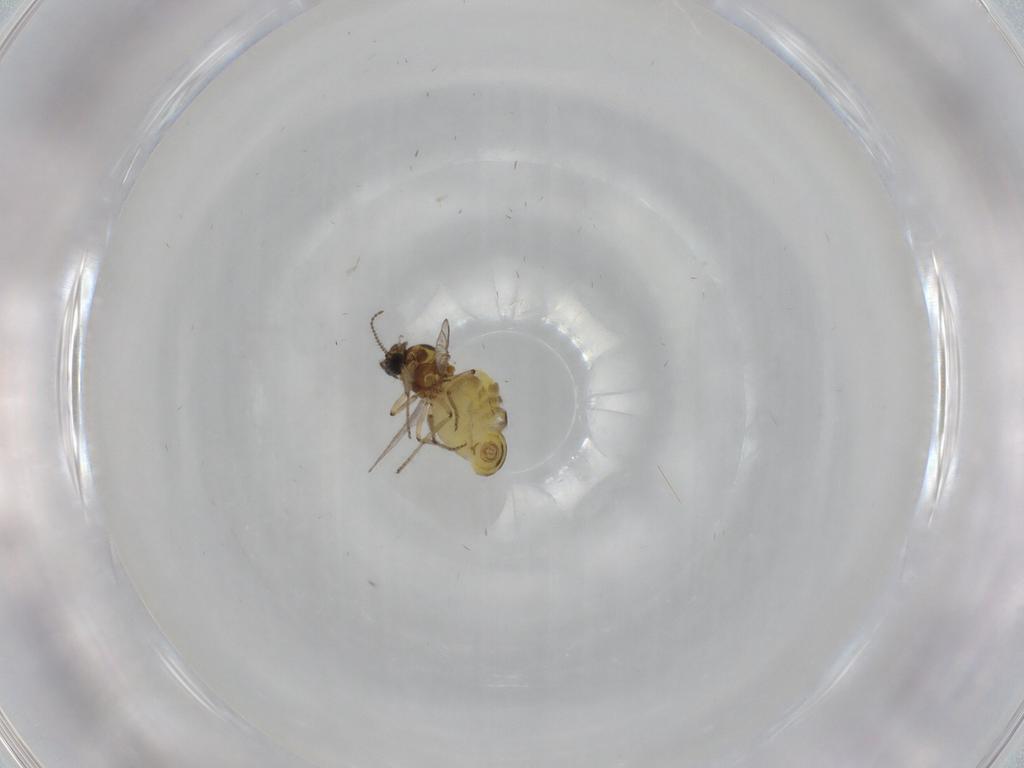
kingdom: Animalia
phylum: Arthropoda
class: Insecta
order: Diptera
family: Ceratopogonidae
